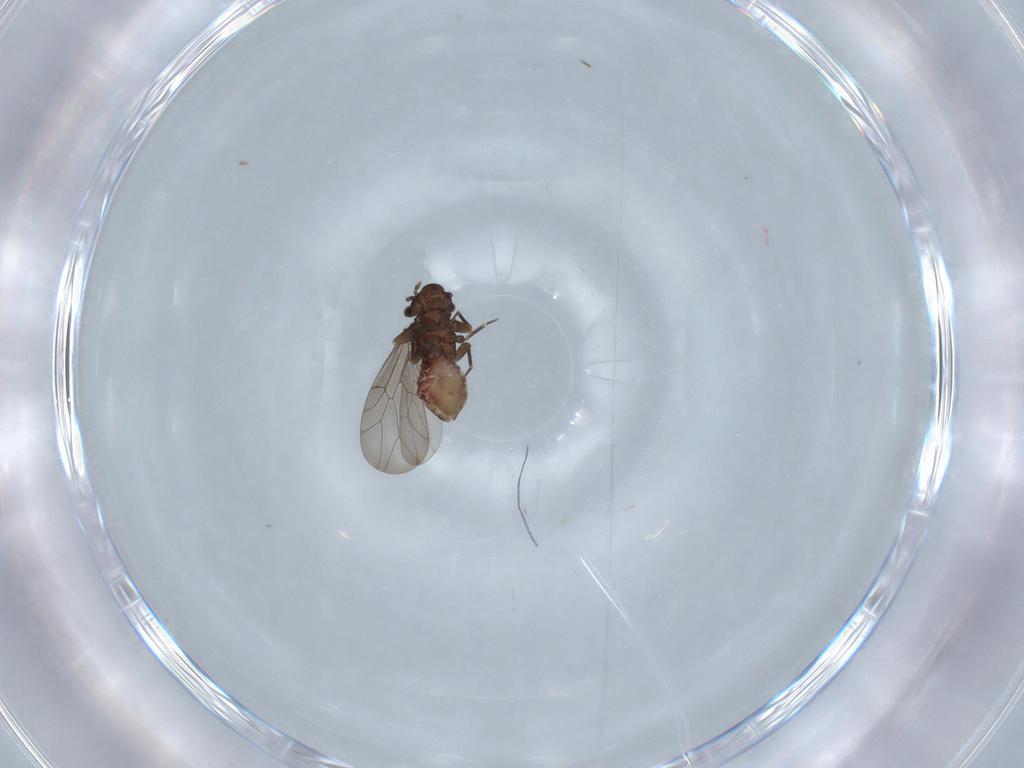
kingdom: Animalia
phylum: Arthropoda
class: Insecta
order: Psocodea
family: Lepidopsocidae
